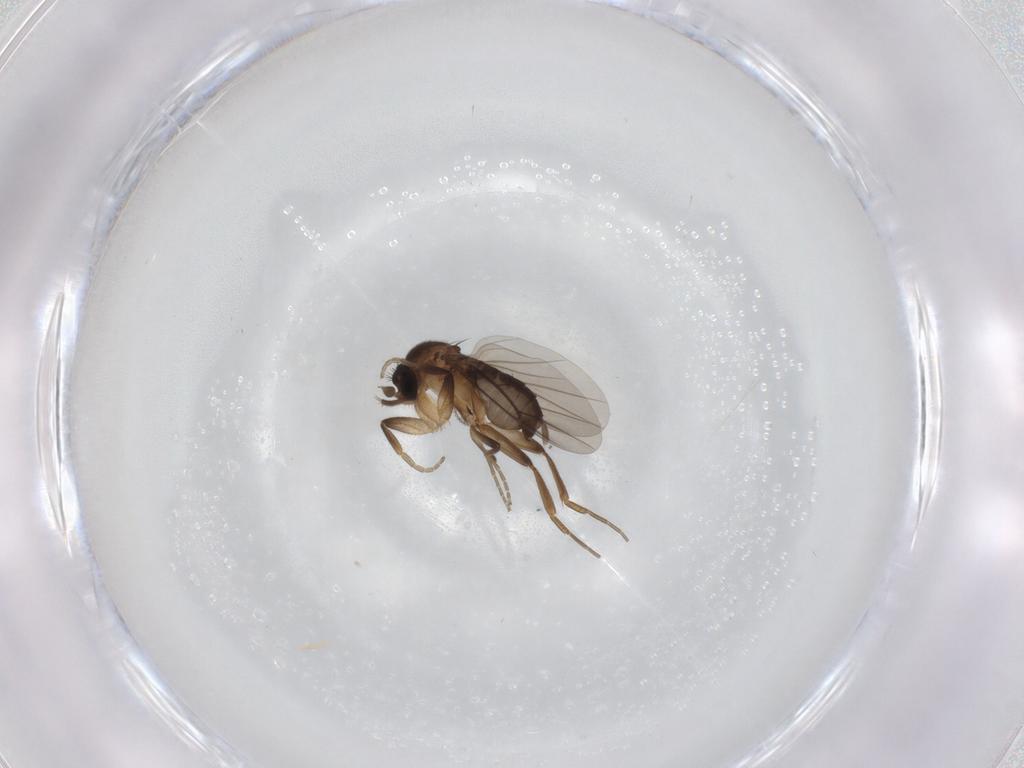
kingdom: Animalia
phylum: Arthropoda
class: Insecta
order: Diptera
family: Phoridae
